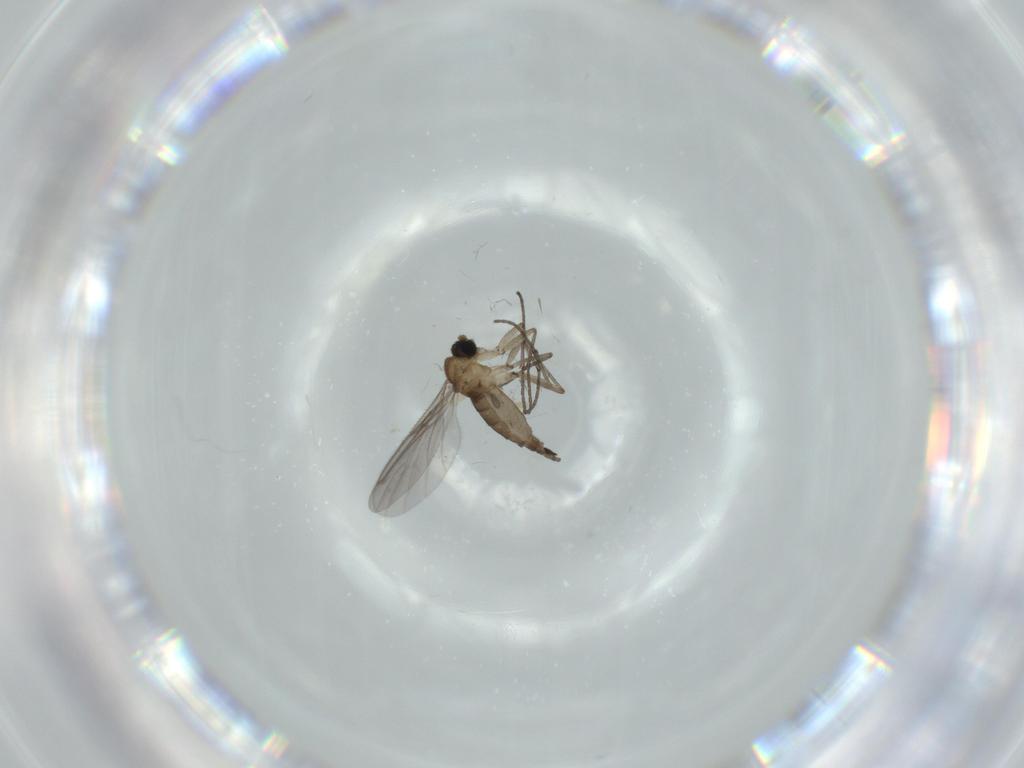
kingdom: Animalia
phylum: Arthropoda
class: Insecta
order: Diptera
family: Sciaridae
